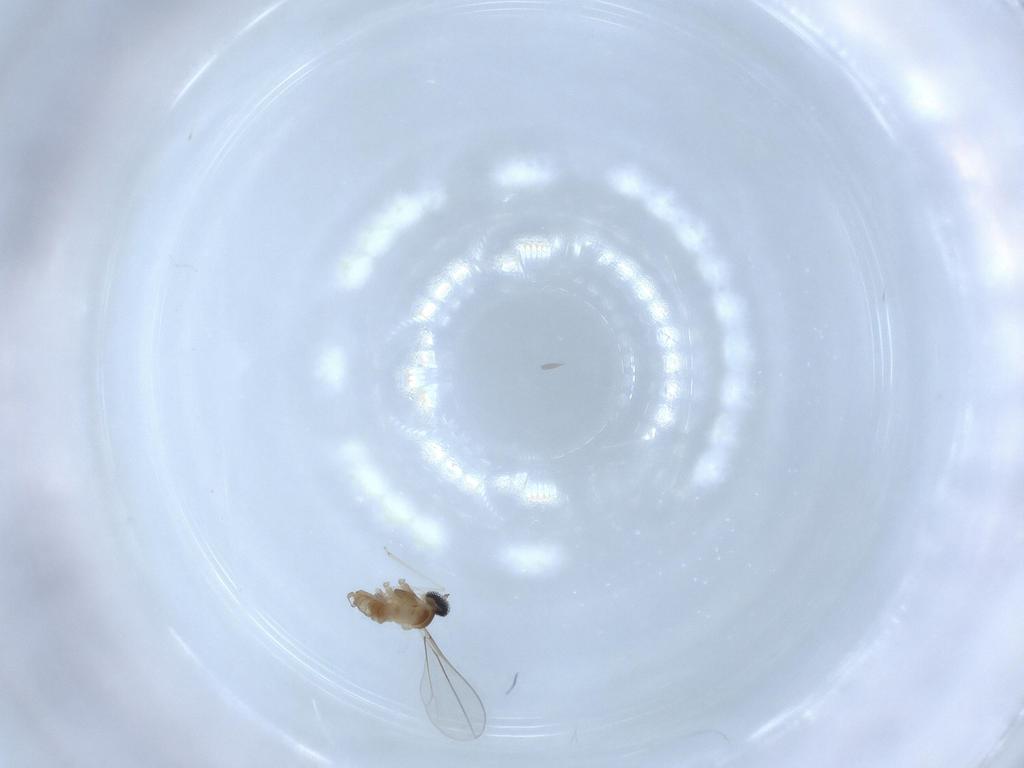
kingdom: Animalia
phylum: Arthropoda
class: Insecta
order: Diptera
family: Cecidomyiidae
